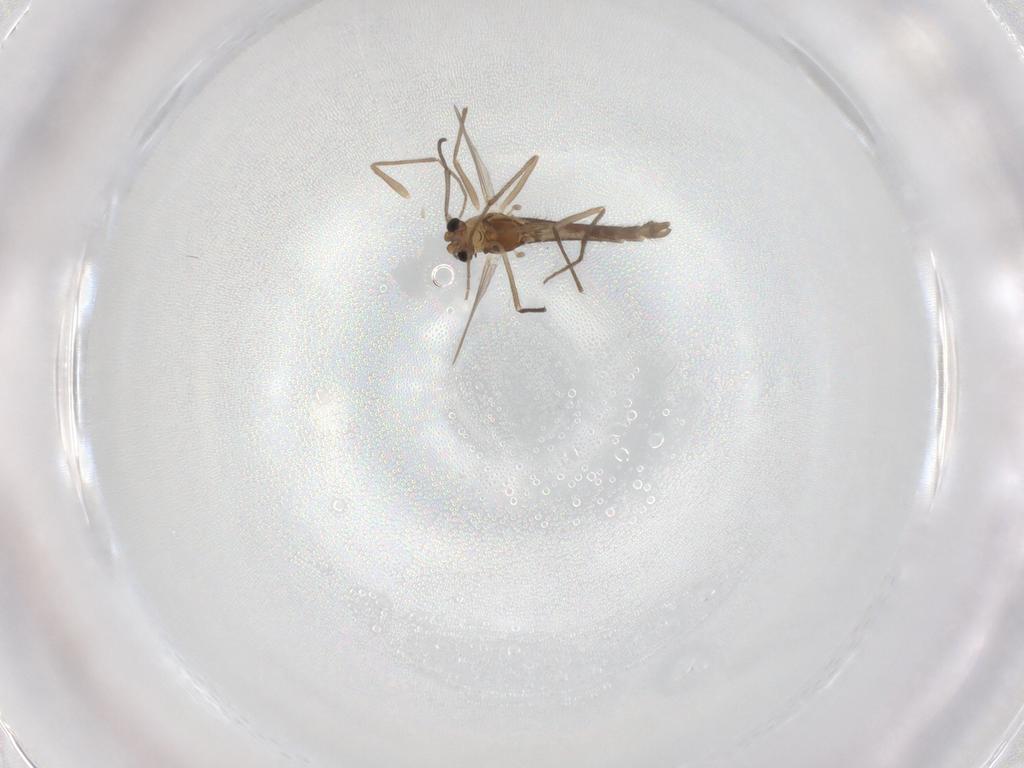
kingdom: Animalia
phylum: Arthropoda
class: Insecta
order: Diptera
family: Chironomidae
